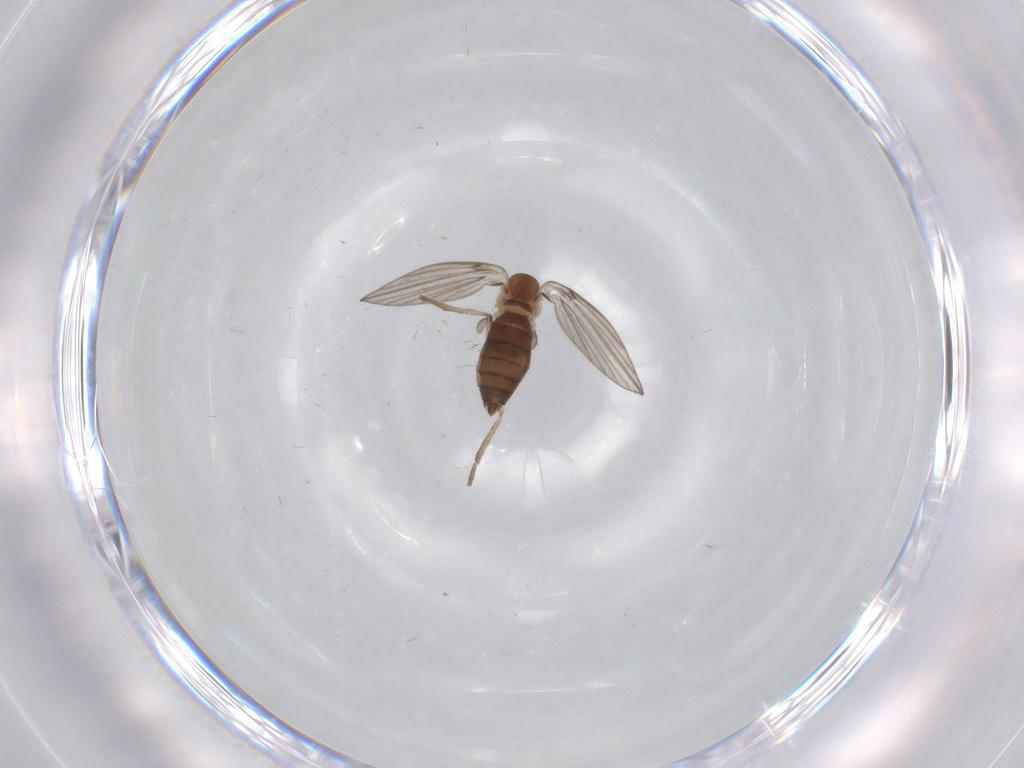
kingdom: Animalia
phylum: Arthropoda
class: Insecta
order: Diptera
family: Psychodidae
